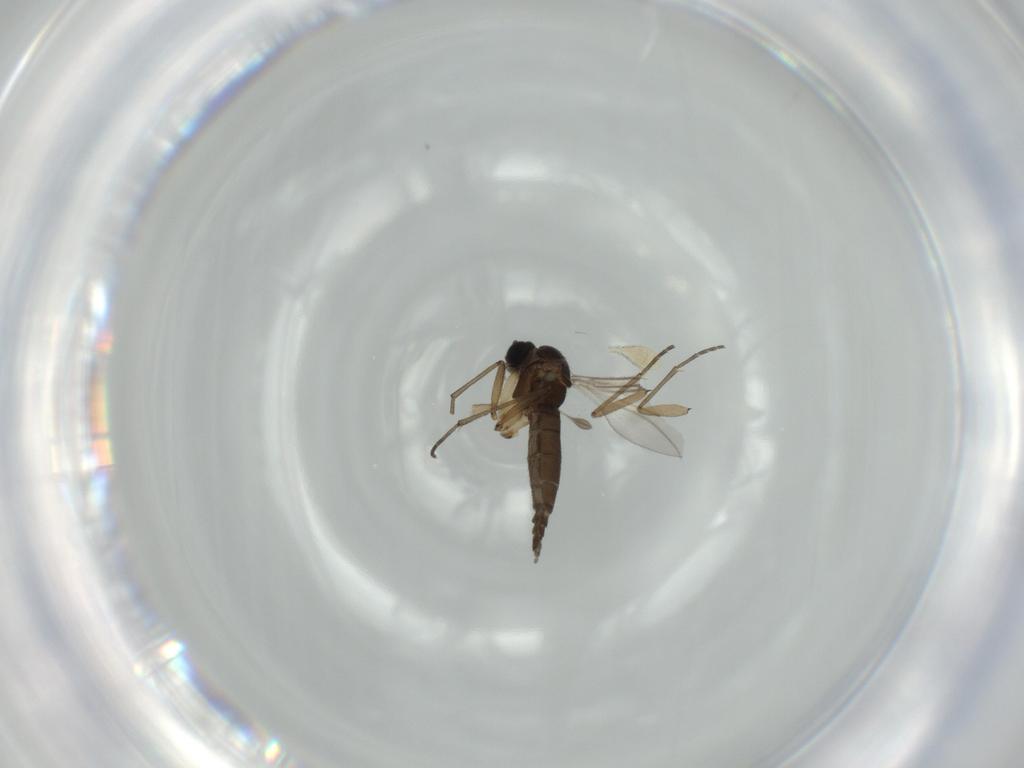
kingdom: Animalia
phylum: Arthropoda
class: Insecta
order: Diptera
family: Sciaridae
